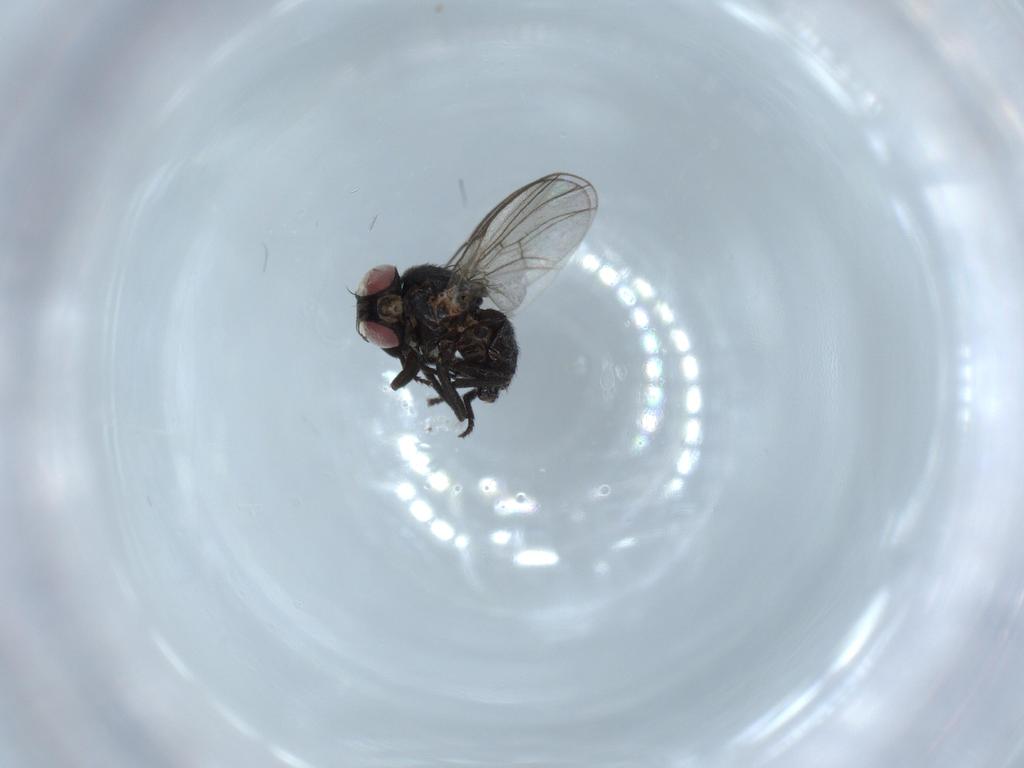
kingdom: Animalia
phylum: Arthropoda
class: Insecta
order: Diptera
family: Agromyzidae
